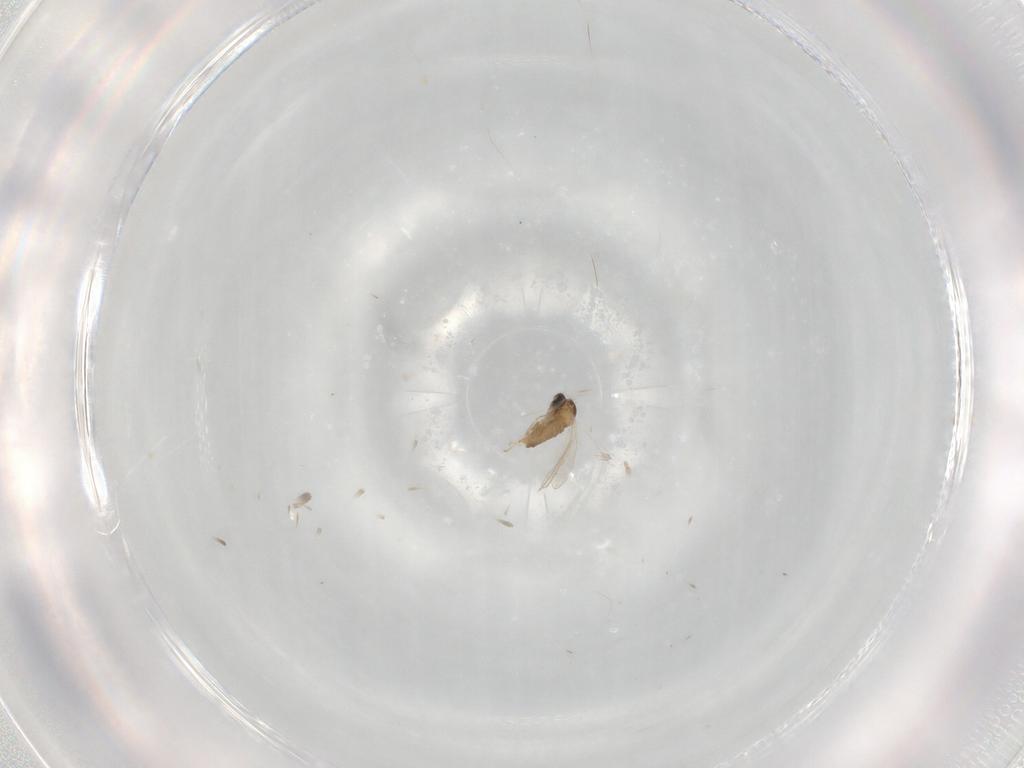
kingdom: Animalia
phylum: Arthropoda
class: Insecta
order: Diptera
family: Cecidomyiidae
